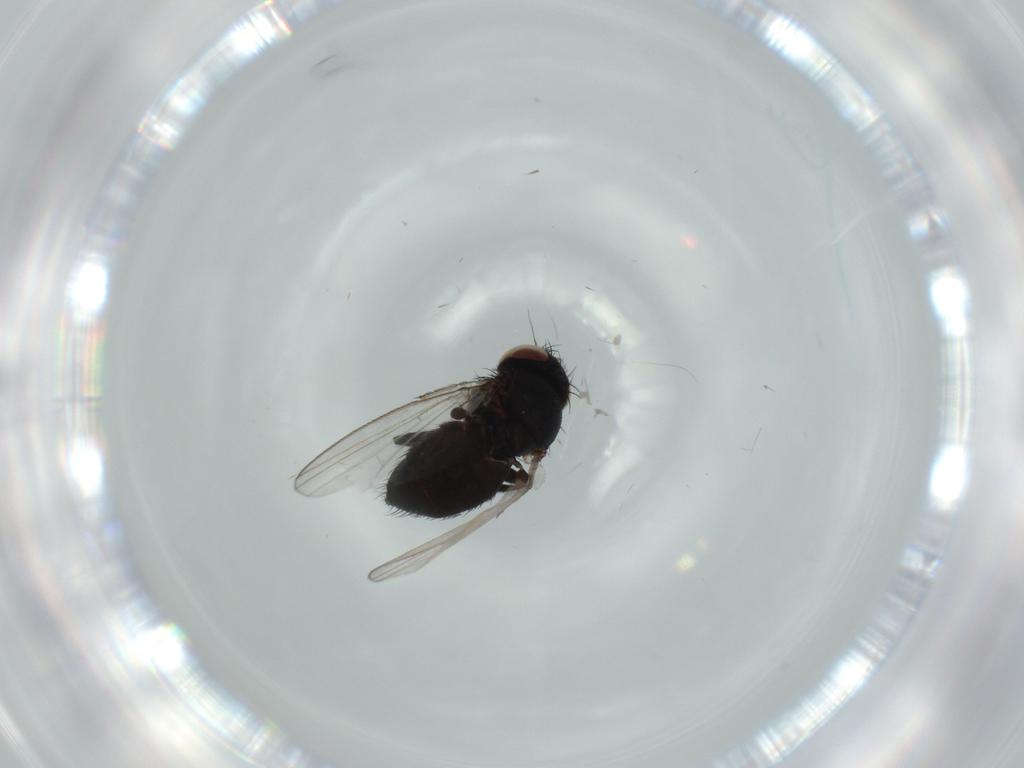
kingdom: Animalia
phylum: Arthropoda
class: Insecta
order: Diptera
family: Milichiidae
